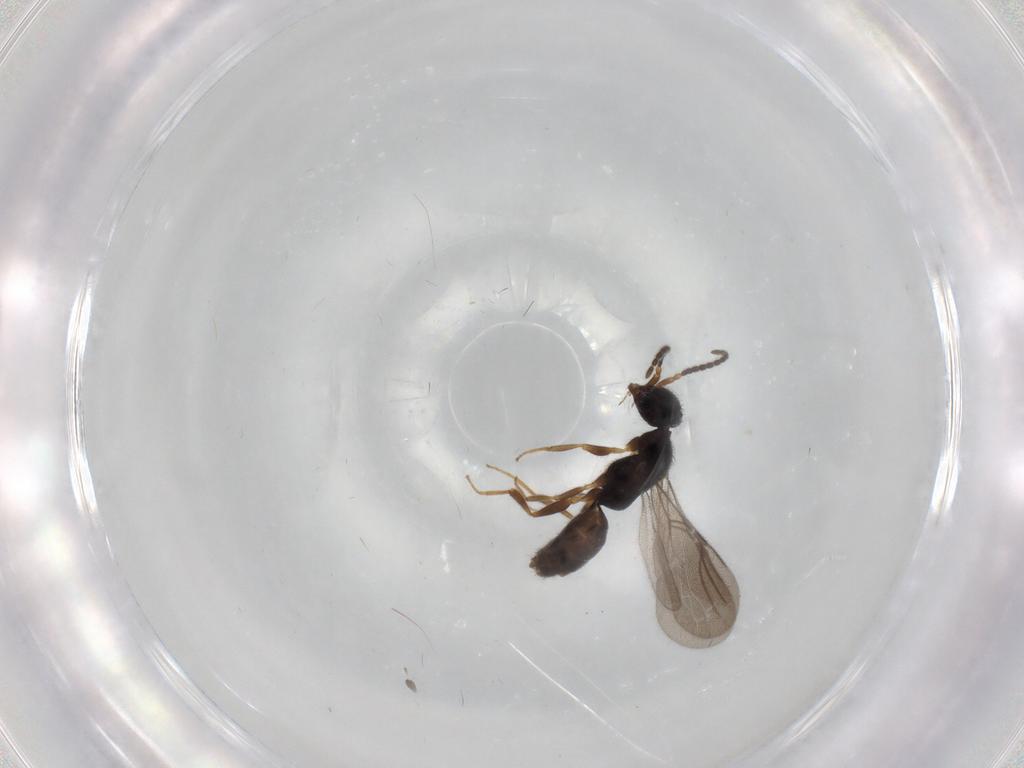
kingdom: Animalia
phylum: Arthropoda
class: Insecta
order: Hymenoptera
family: Bethylidae
